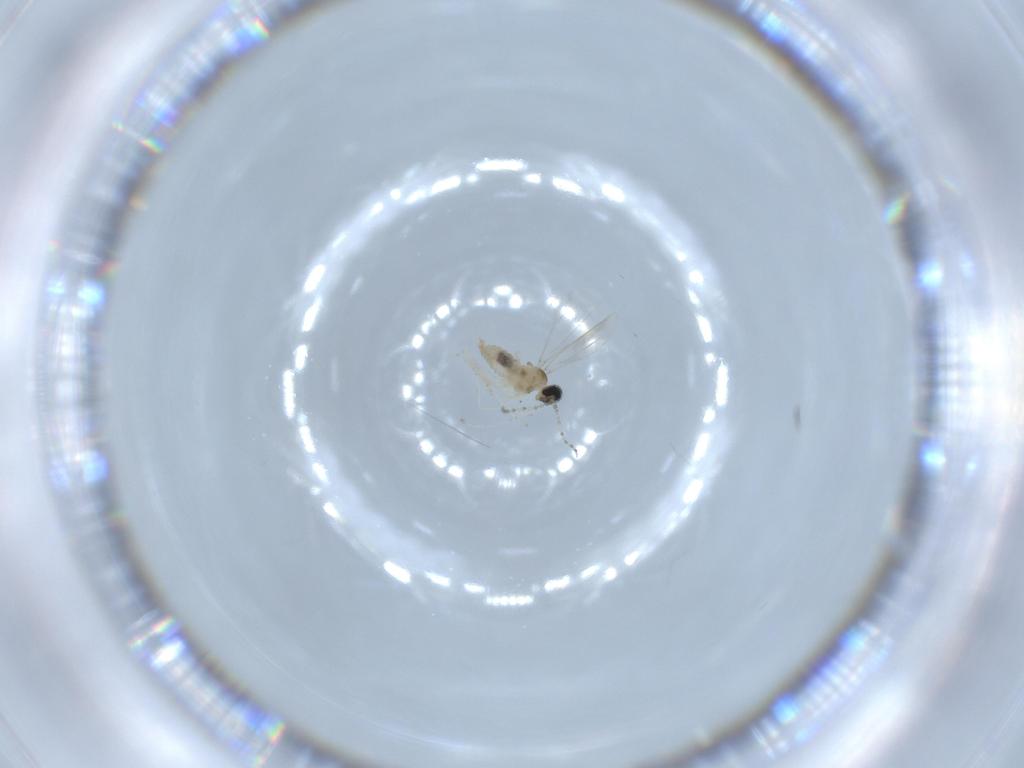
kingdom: Animalia
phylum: Arthropoda
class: Insecta
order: Diptera
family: Cecidomyiidae
